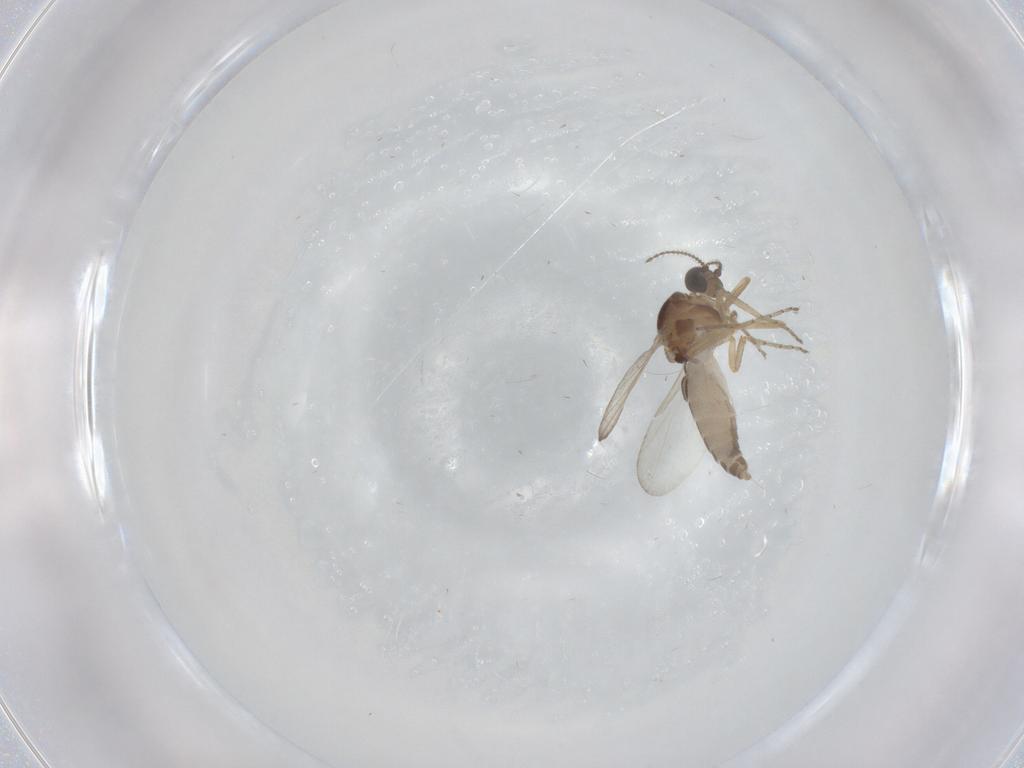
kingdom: Animalia
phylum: Arthropoda
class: Insecta
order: Diptera
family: Ceratopogonidae
